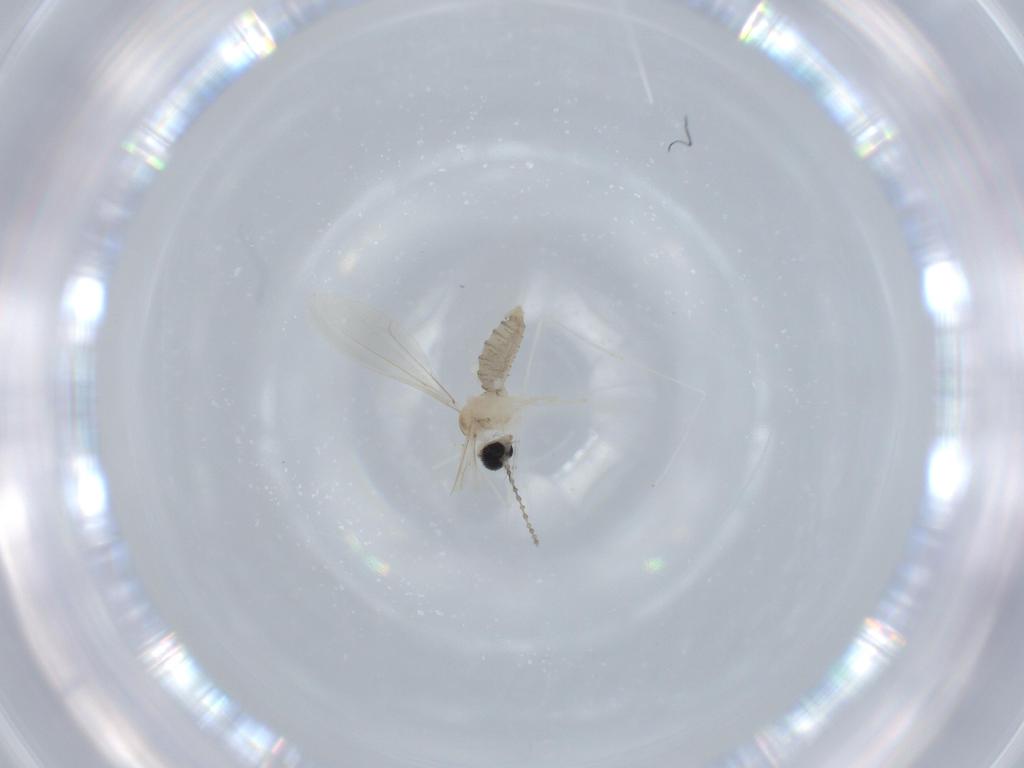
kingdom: Animalia
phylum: Arthropoda
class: Insecta
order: Diptera
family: Cecidomyiidae
